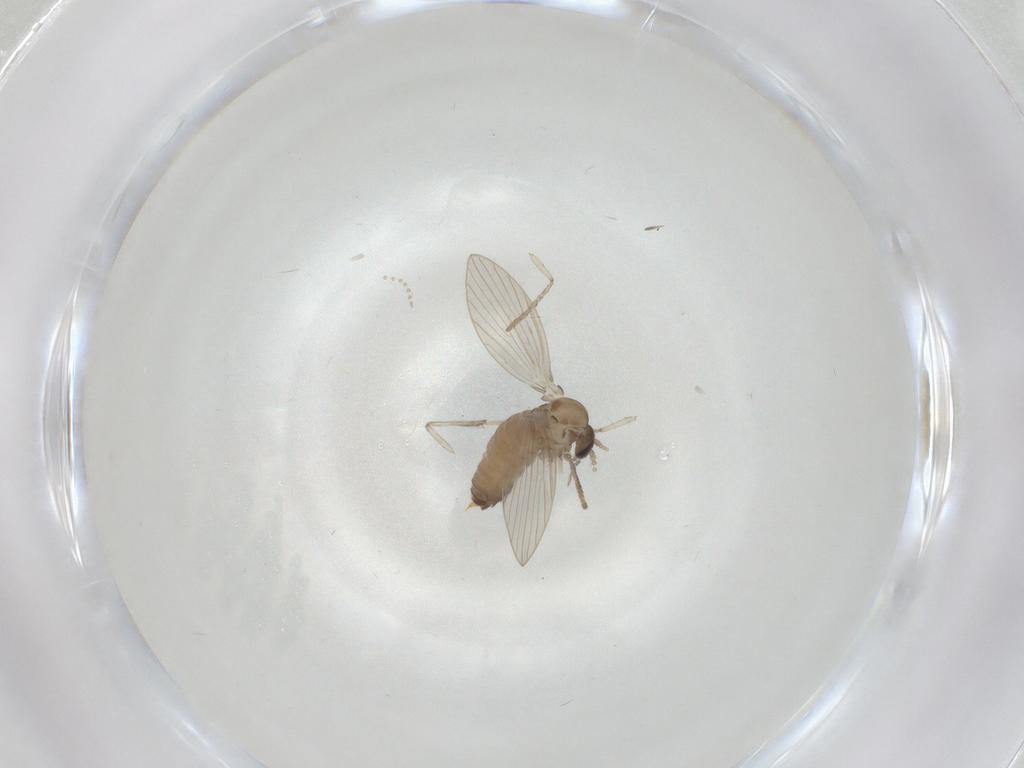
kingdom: Animalia
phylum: Arthropoda
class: Insecta
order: Diptera
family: Psychodidae
